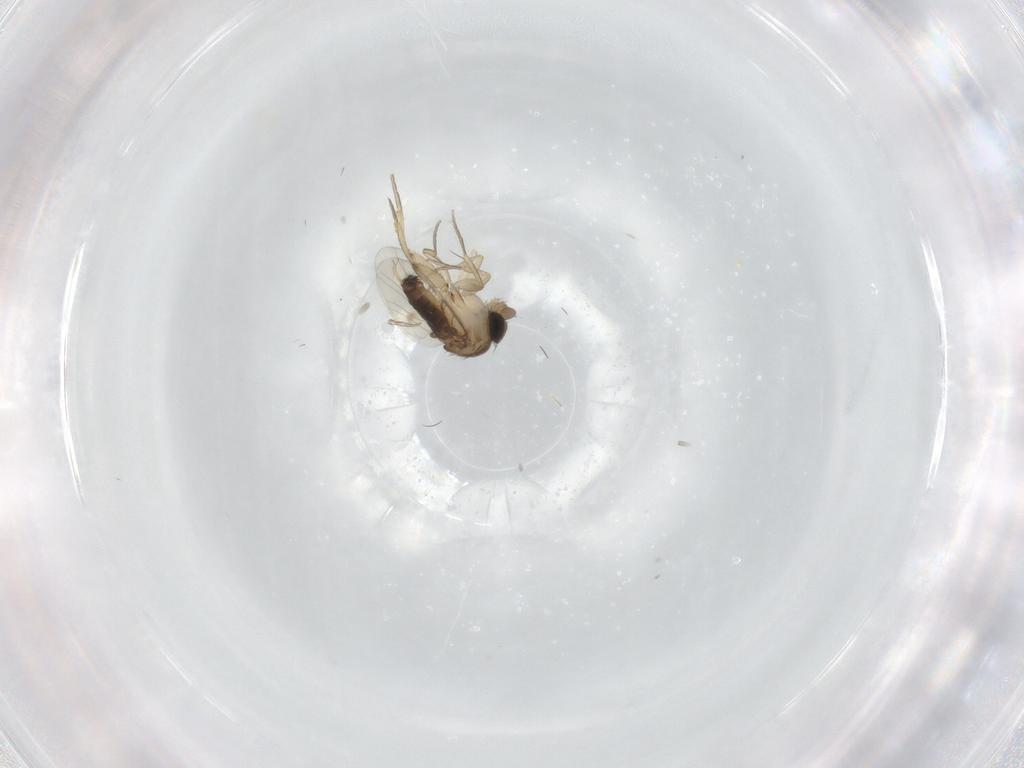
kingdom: Animalia
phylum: Arthropoda
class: Insecta
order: Diptera
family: Phoridae
